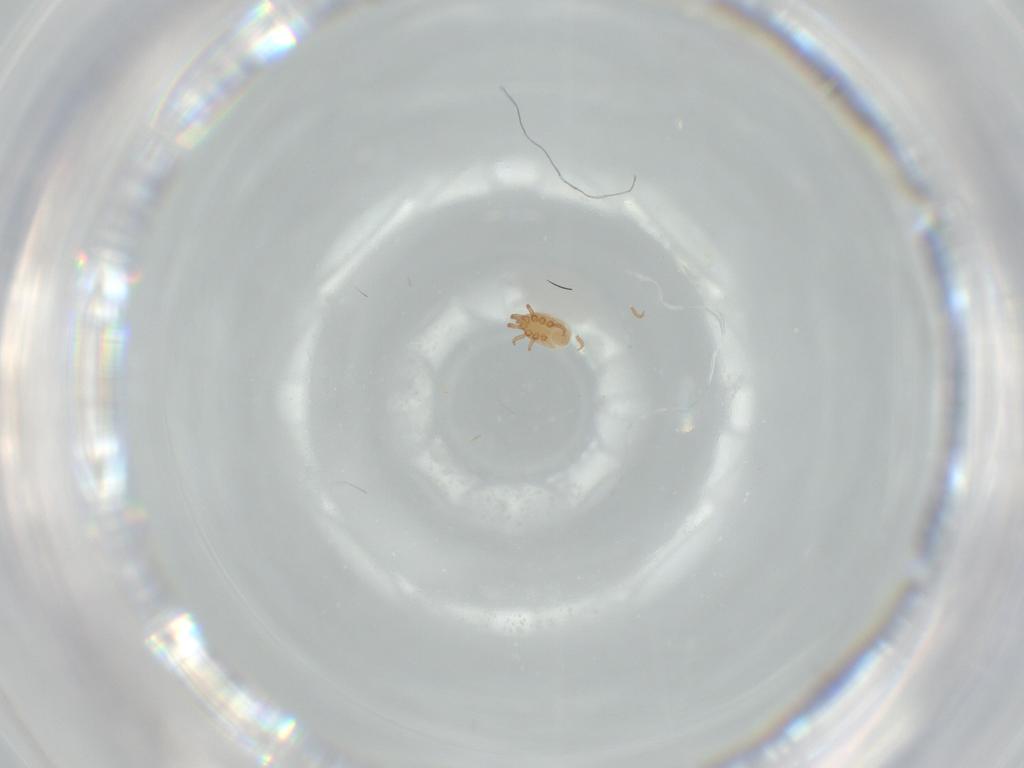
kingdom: Animalia
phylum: Arthropoda
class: Arachnida
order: Mesostigmata
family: Dinychidae
